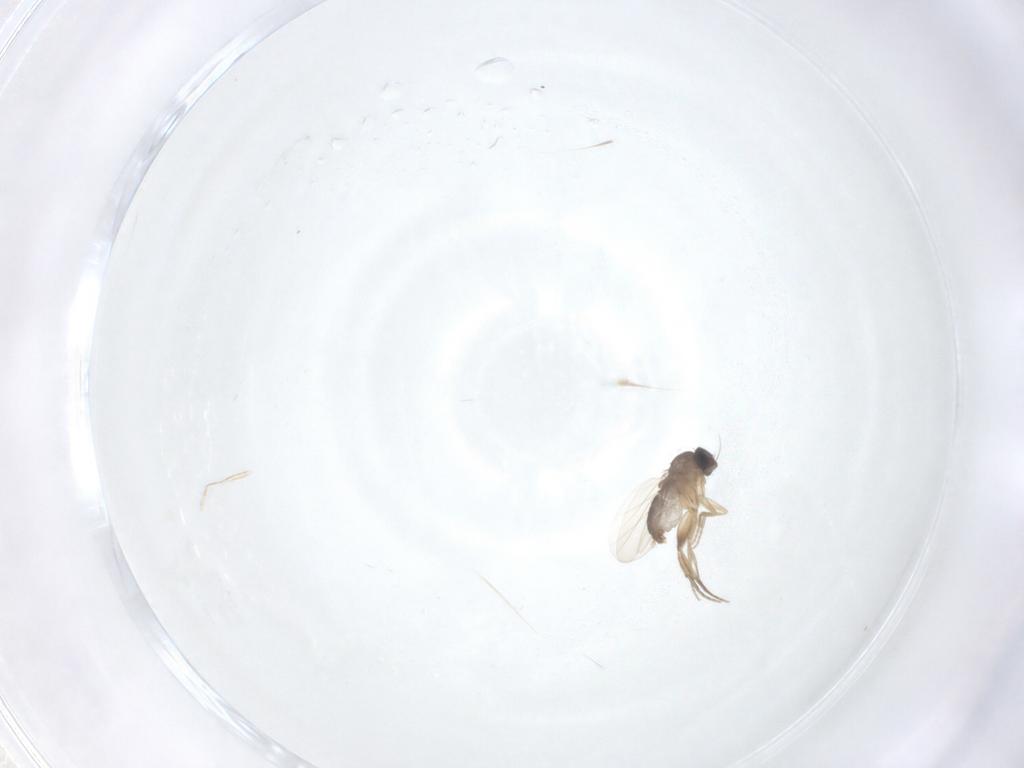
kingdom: Animalia
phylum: Arthropoda
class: Insecta
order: Diptera
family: Phoridae
